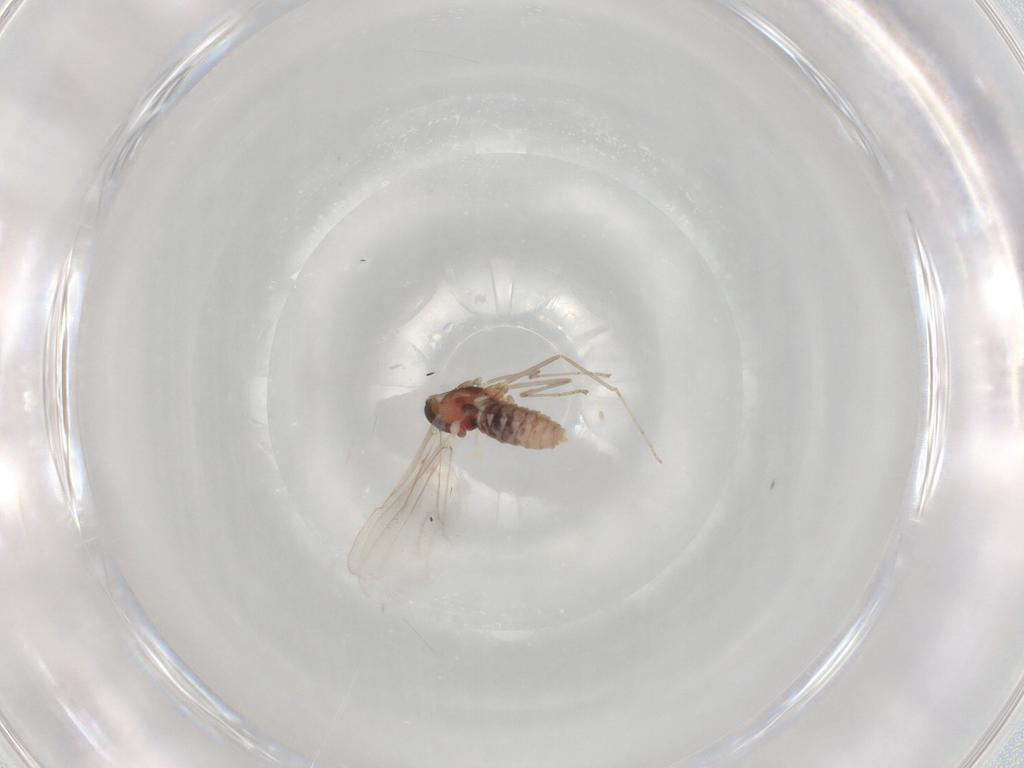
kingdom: Animalia
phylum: Arthropoda
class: Insecta
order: Diptera
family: Cecidomyiidae
